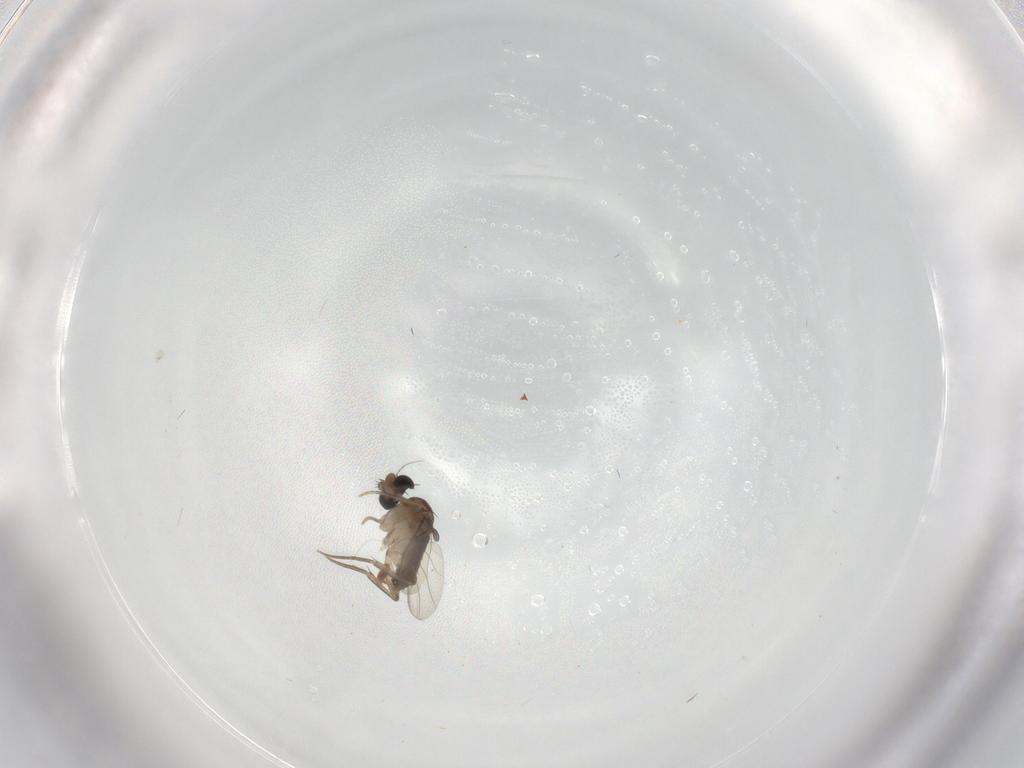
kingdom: Animalia
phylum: Arthropoda
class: Insecta
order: Diptera
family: Phoridae
